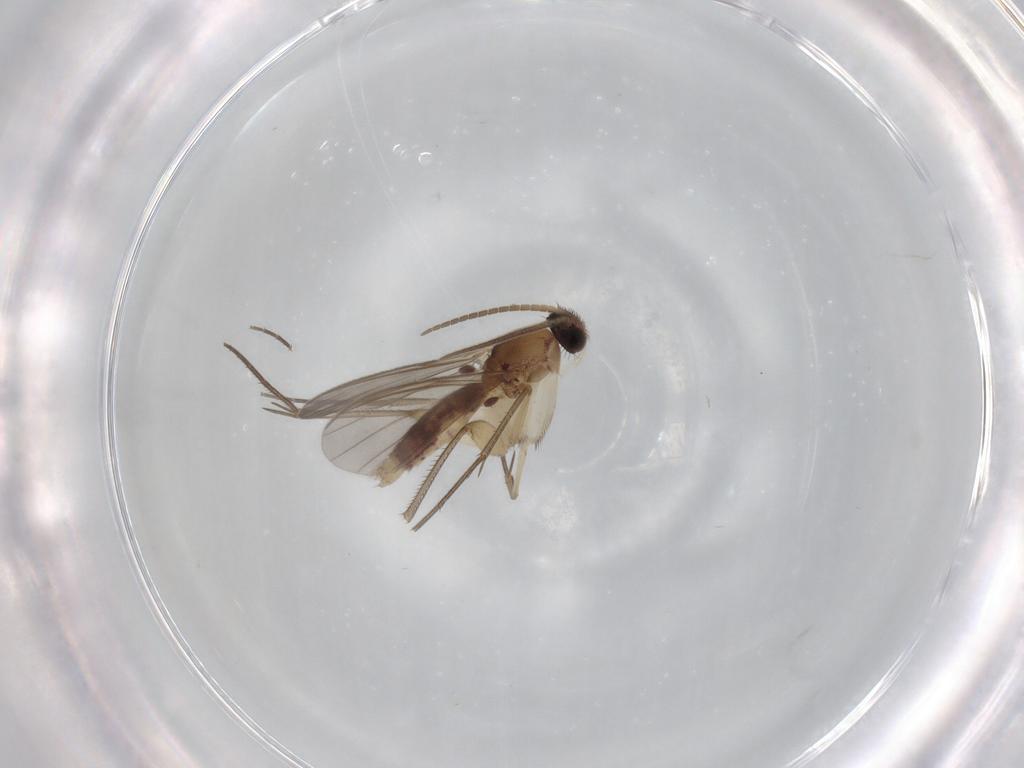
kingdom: Animalia
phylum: Arthropoda
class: Insecta
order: Diptera
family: Mycetophilidae
